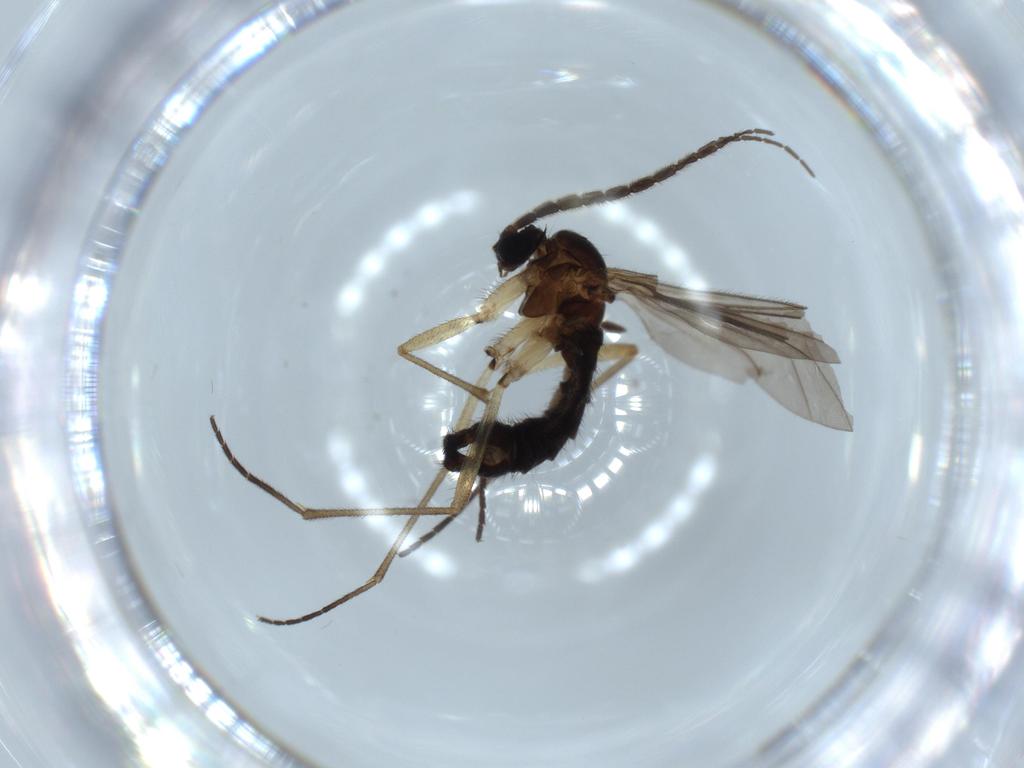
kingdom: Animalia
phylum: Arthropoda
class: Insecta
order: Diptera
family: Sciaridae
